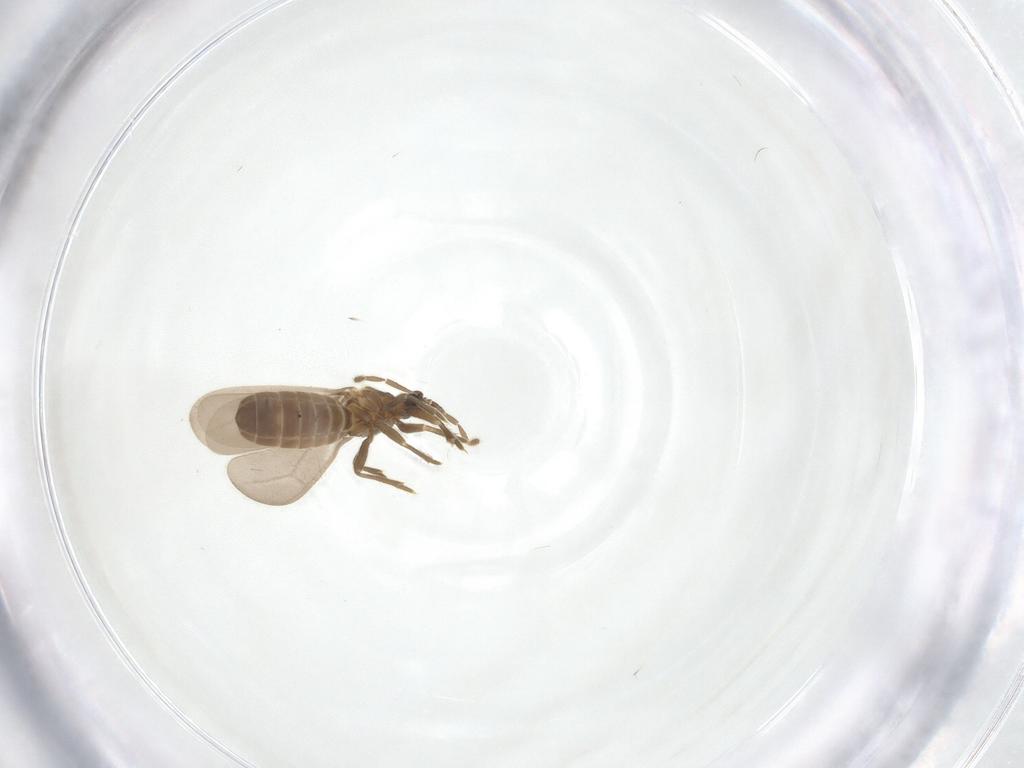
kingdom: Animalia
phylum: Arthropoda
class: Insecta
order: Hemiptera
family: Enicocephalidae
